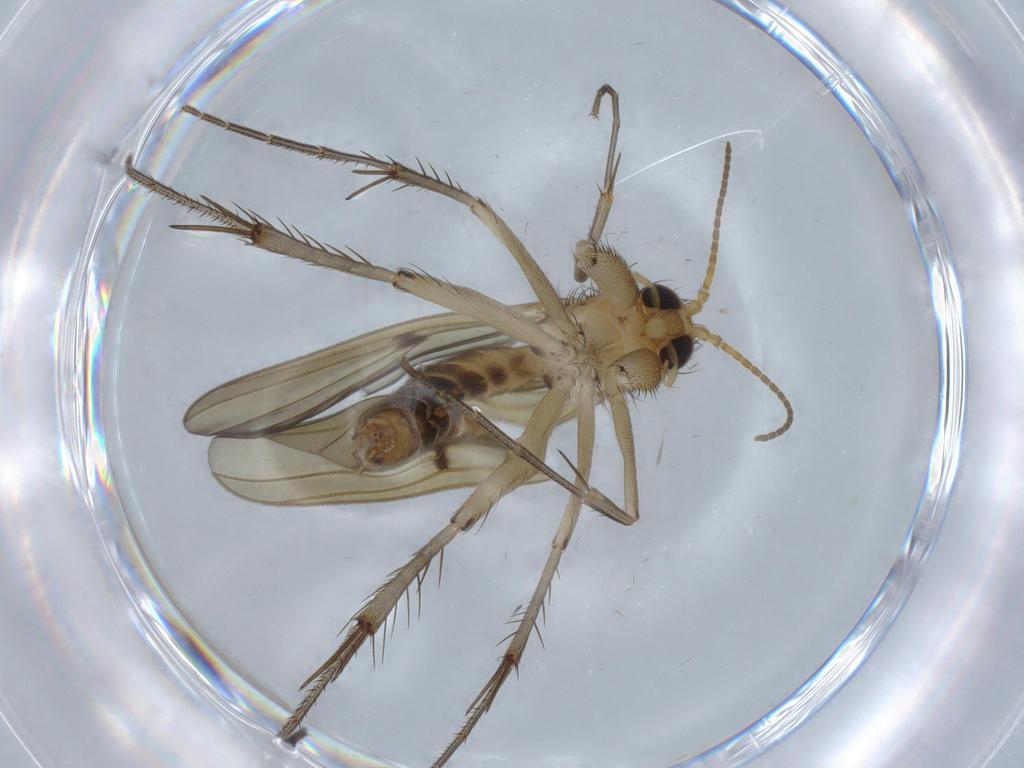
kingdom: Animalia
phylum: Arthropoda
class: Insecta
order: Diptera
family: Mycetophilidae
